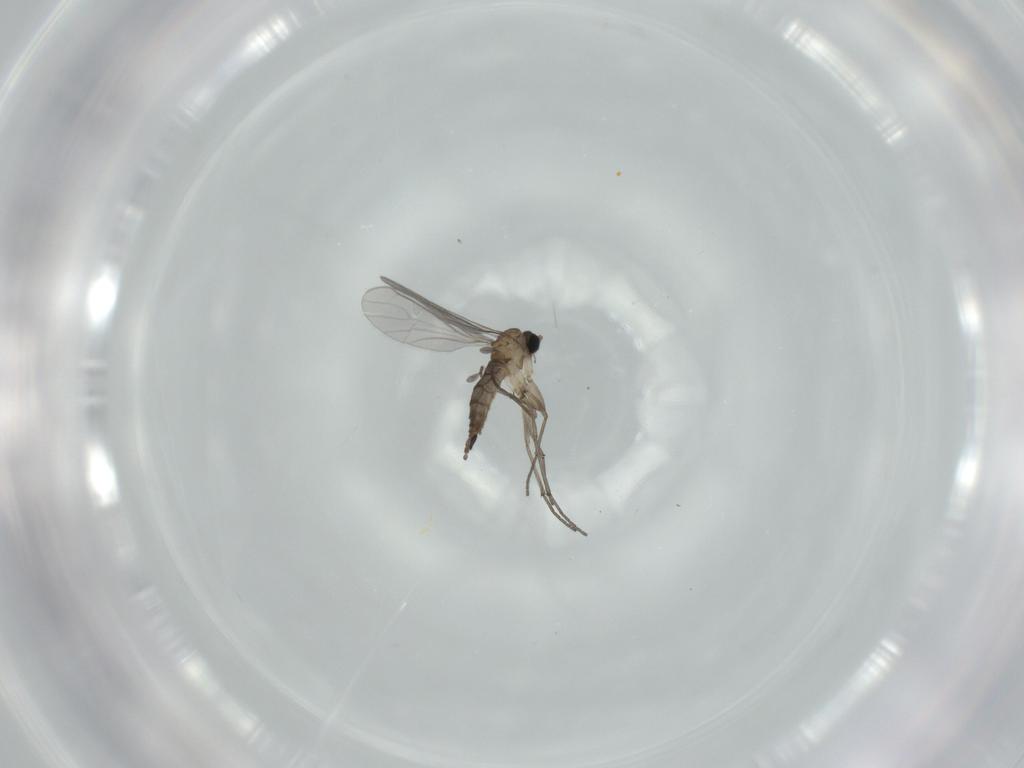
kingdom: Animalia
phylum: Arthropoda
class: Insecta
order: Diptera
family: Sciaridae
